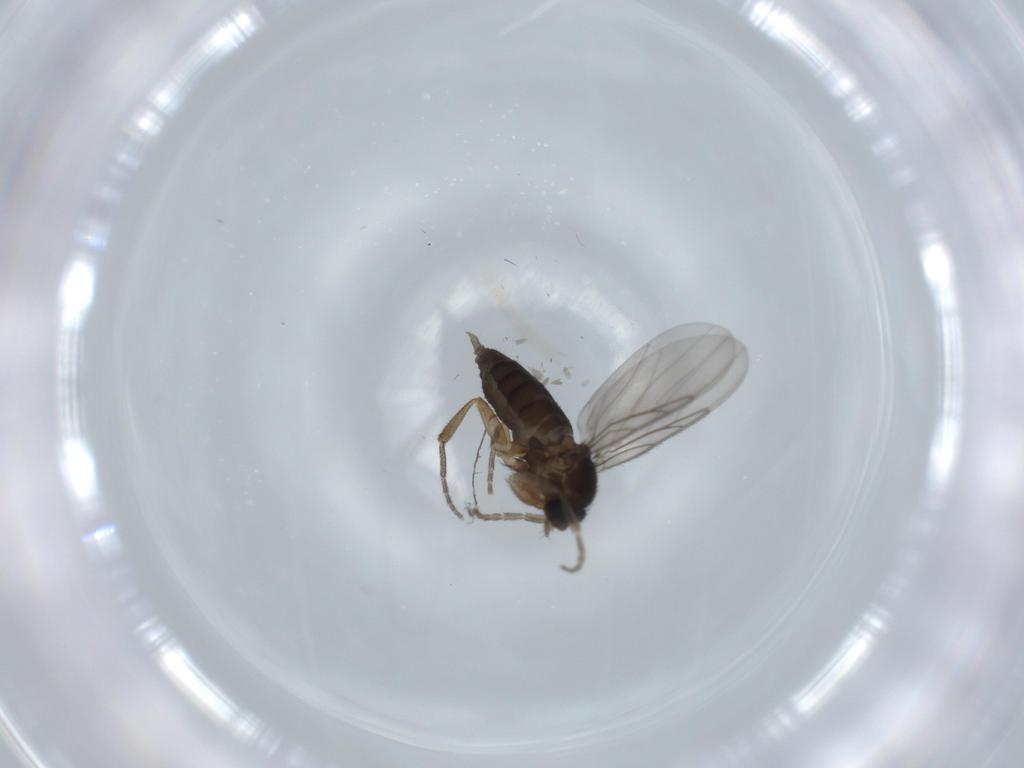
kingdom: Animalia
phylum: Arthropoda
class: Insecta
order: Diptera
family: Phoridae
